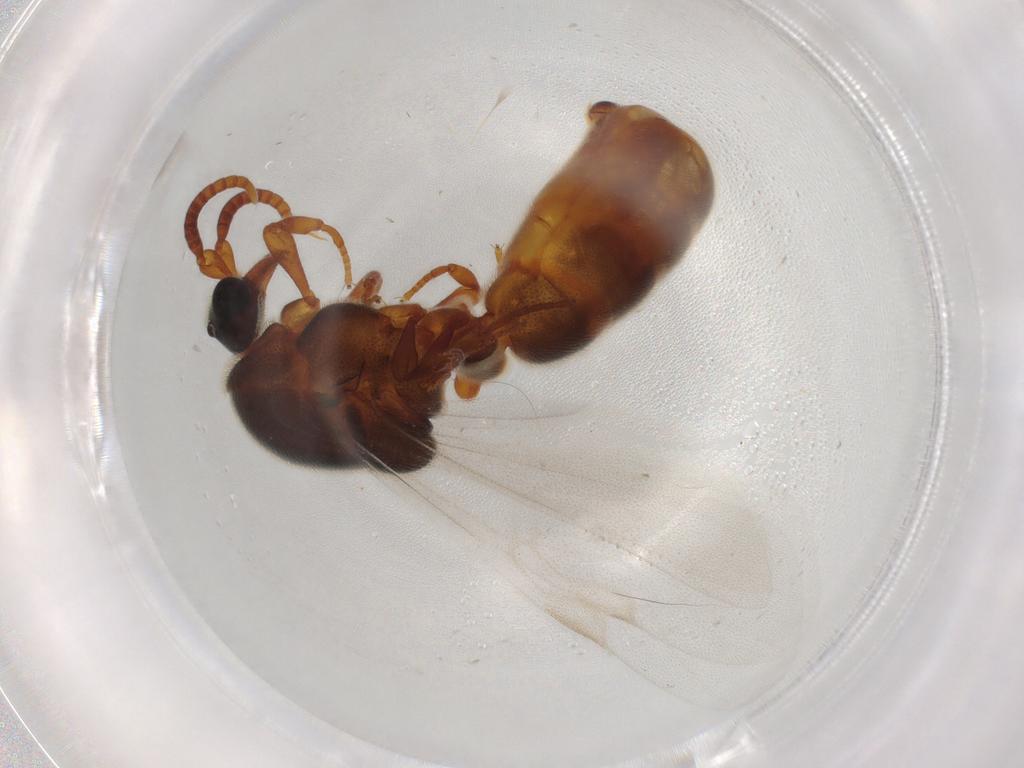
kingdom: Animalia
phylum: Arthropoda
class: Insecta
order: Hymenoptera
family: Formicidae
